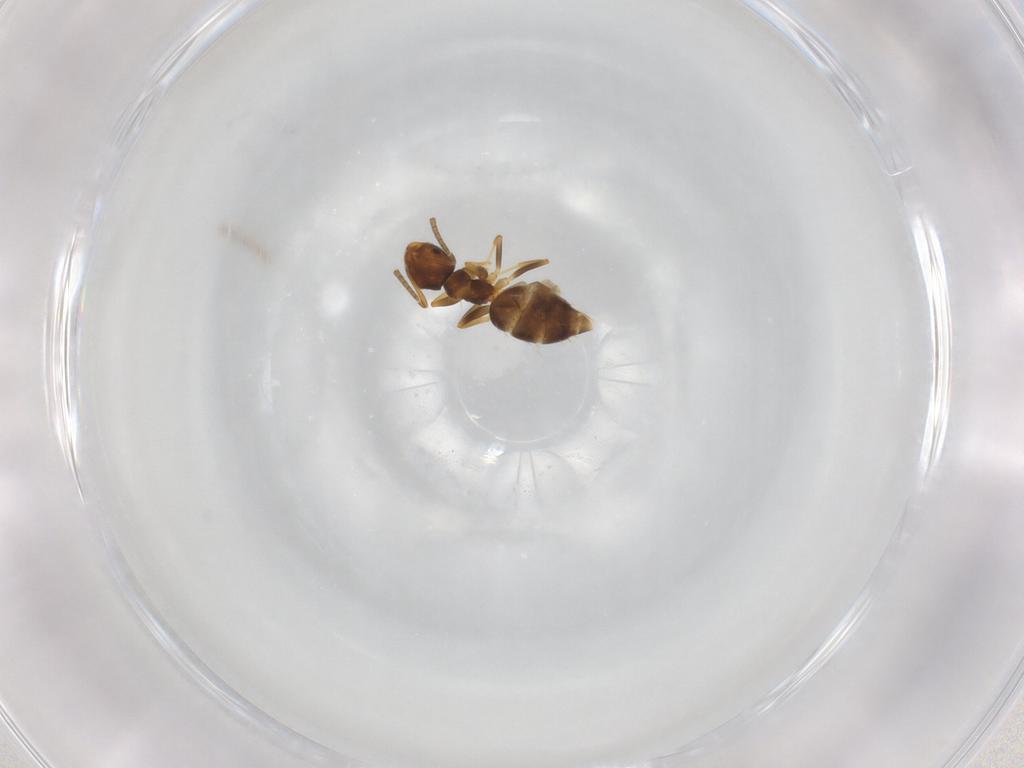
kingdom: Animalia
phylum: Arthropoda
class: Insecta
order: Hymenoptera
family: Formicidae
